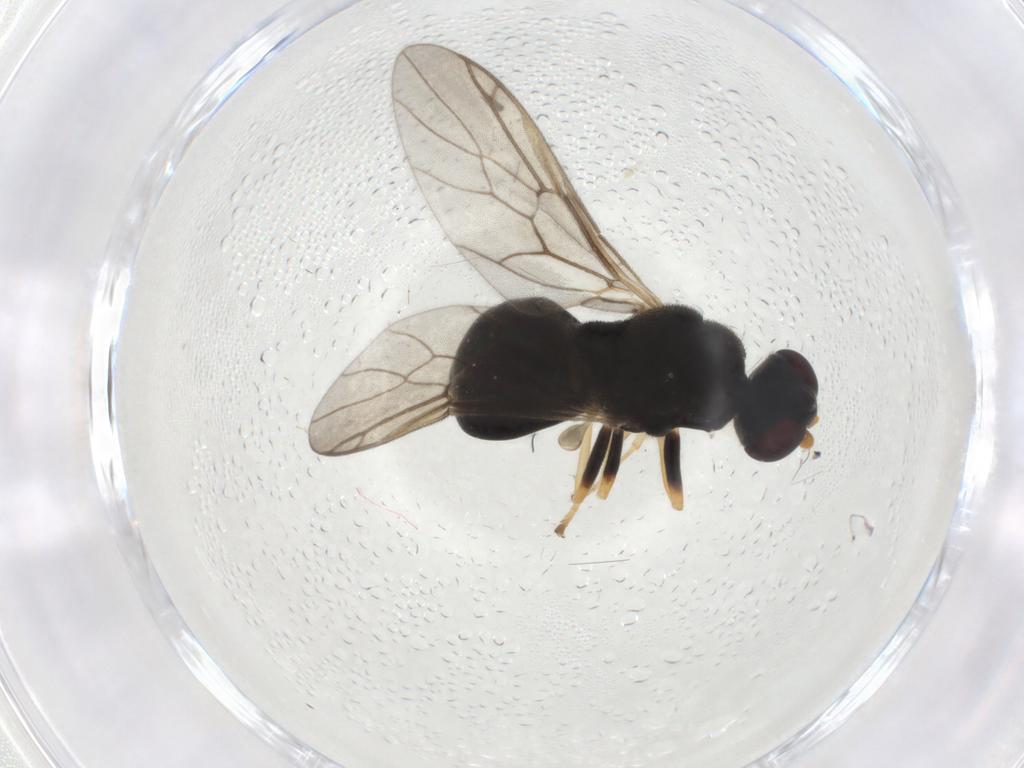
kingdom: Animalia
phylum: Arthropoda
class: Insecta
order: Diptera
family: Stratiomyidae
